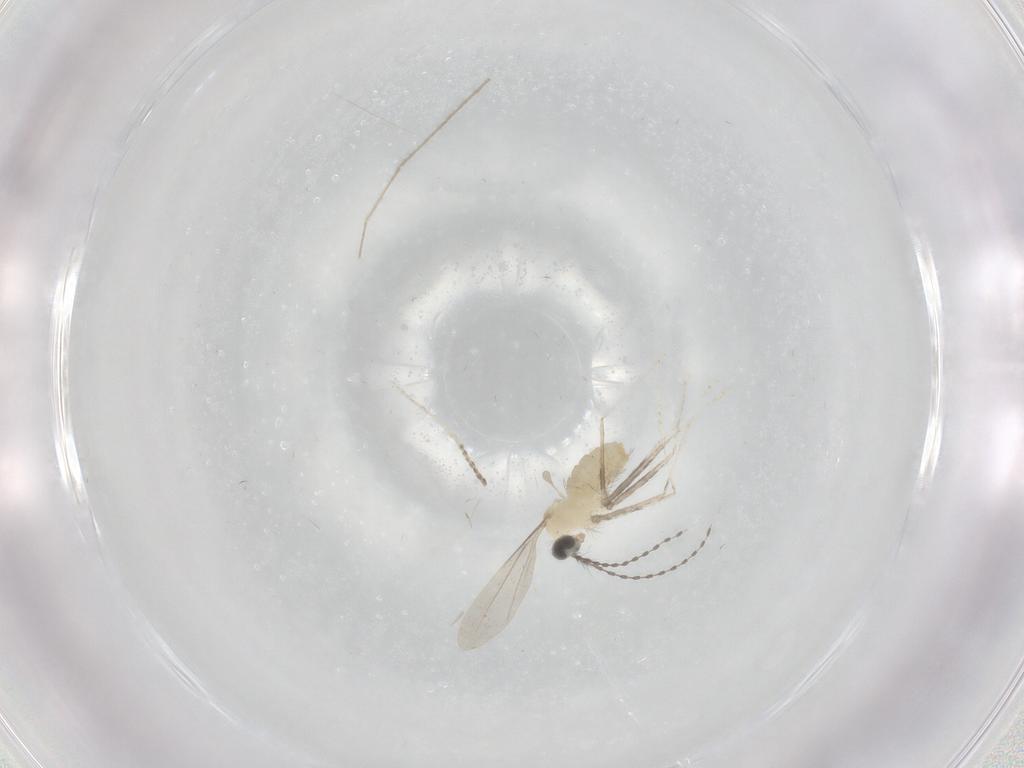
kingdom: Animalia
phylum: Arthropoda
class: Insecta
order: Diptera
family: Cecidomyiidae
